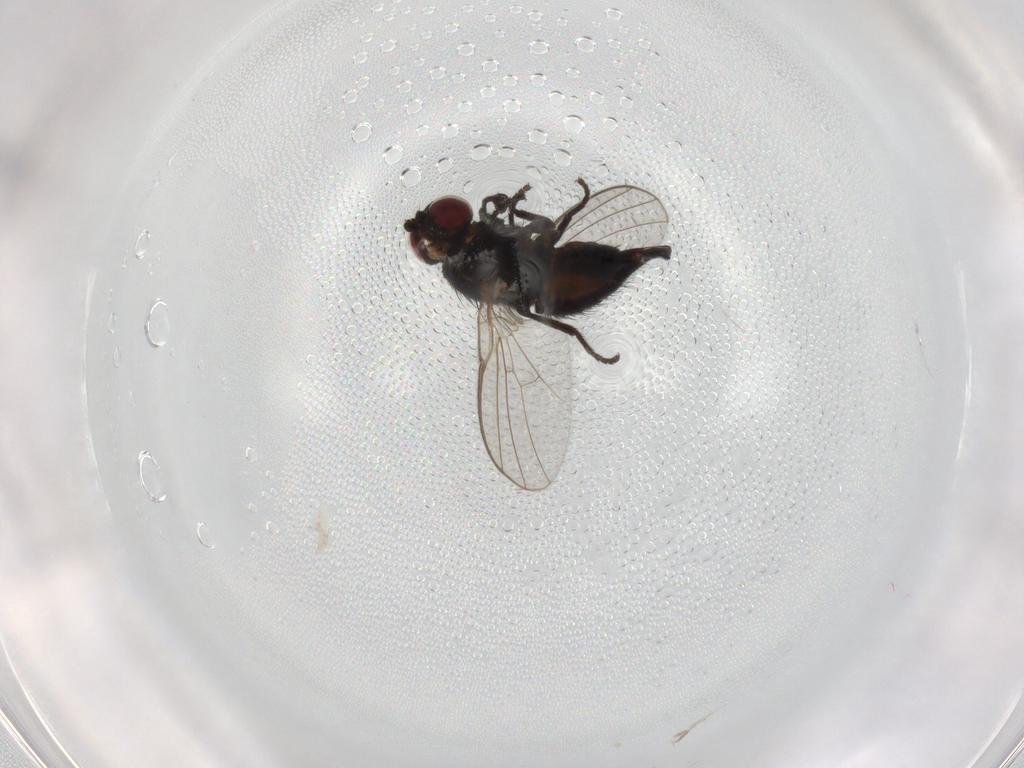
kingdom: Animalia
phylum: Arthropoda
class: Insecta
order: Diptera
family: Agromyzidae
